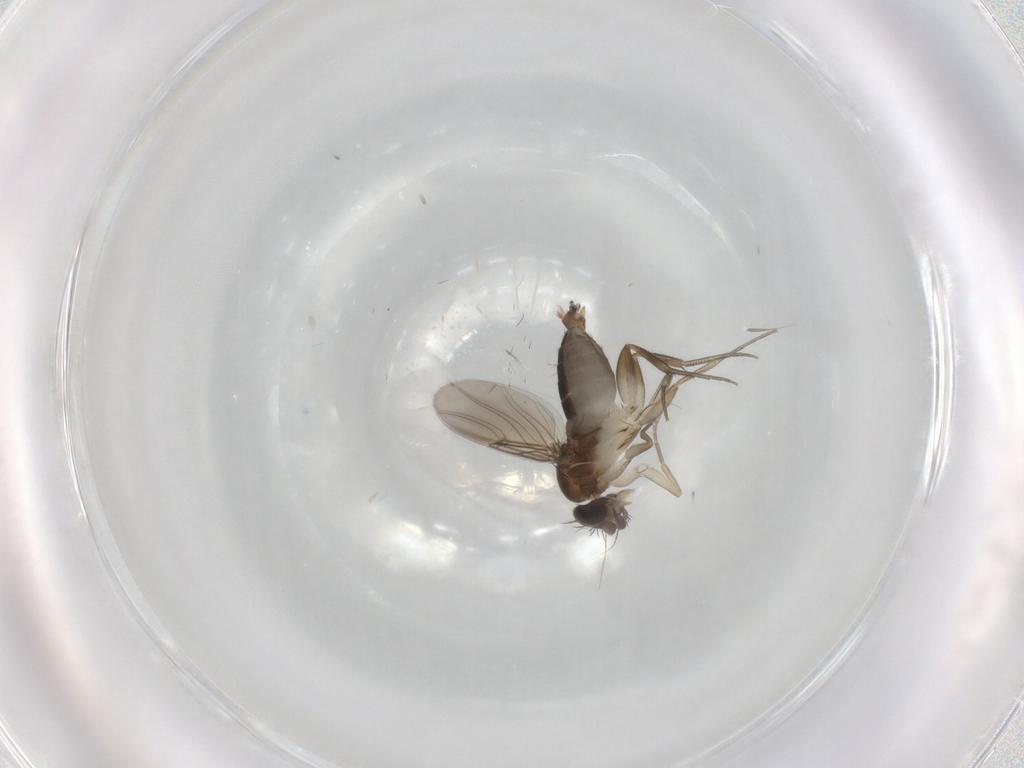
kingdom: Animalia
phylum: Arthropoda
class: Insecta
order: Diptera
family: Phoridae
